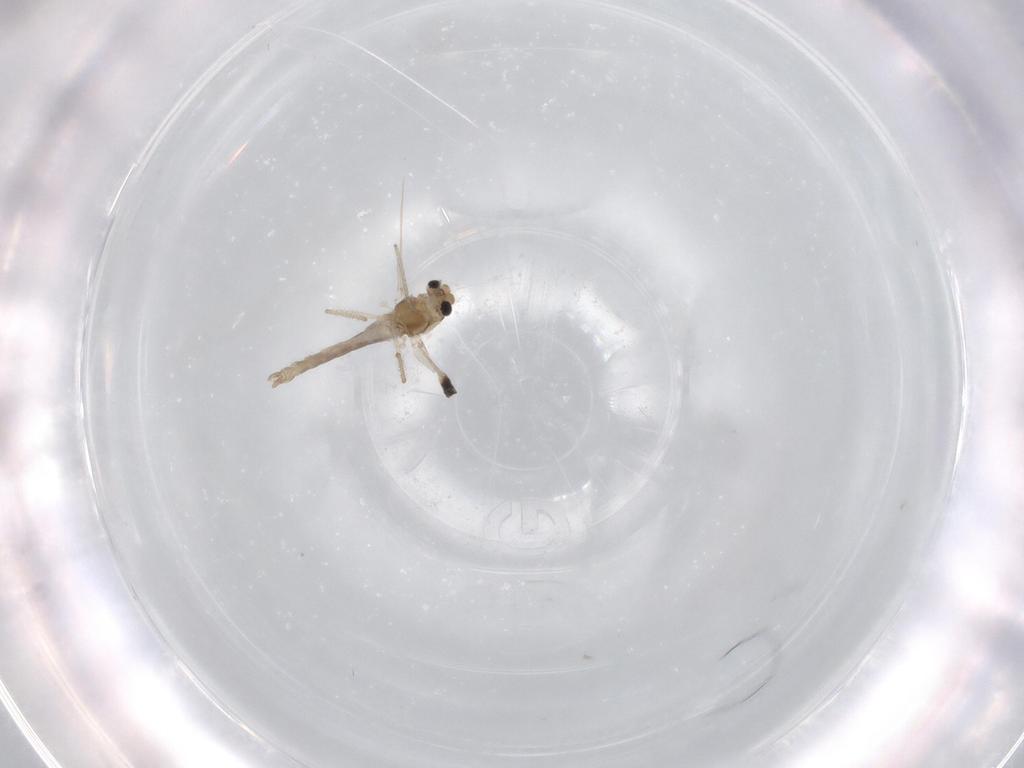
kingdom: Animalia
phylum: Arthropoda
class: Insecta
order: Diptera
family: Chironomidae
